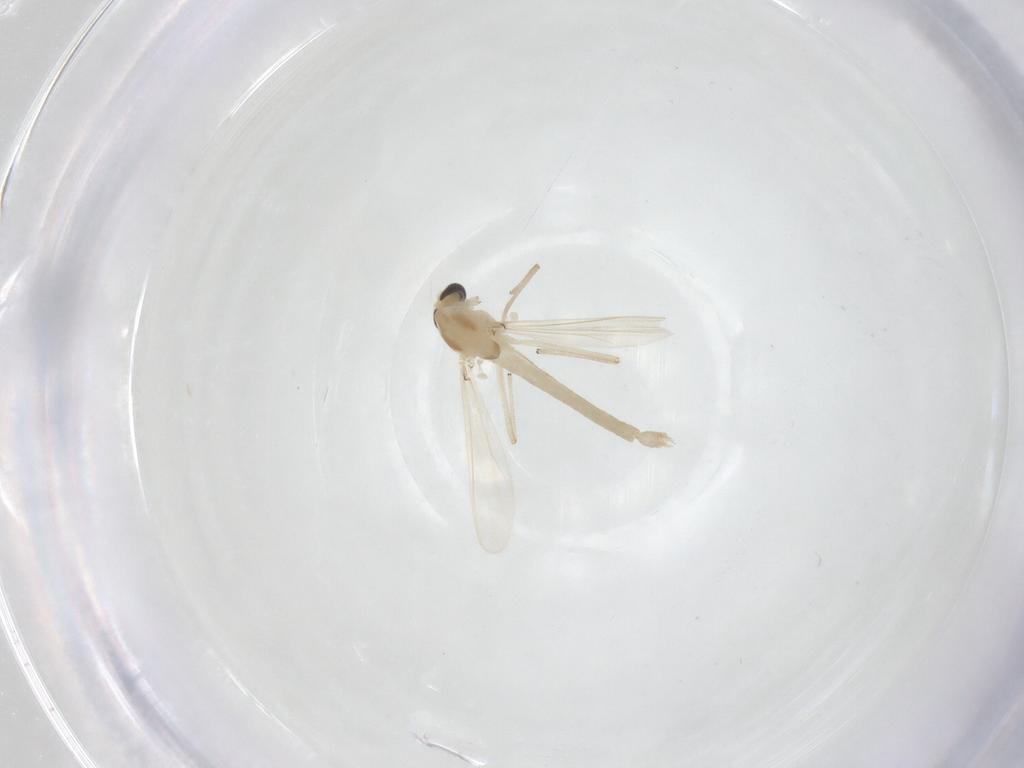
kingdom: Animalia
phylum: Arthropoda
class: Insecta
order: Diptera
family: Chironomidae
